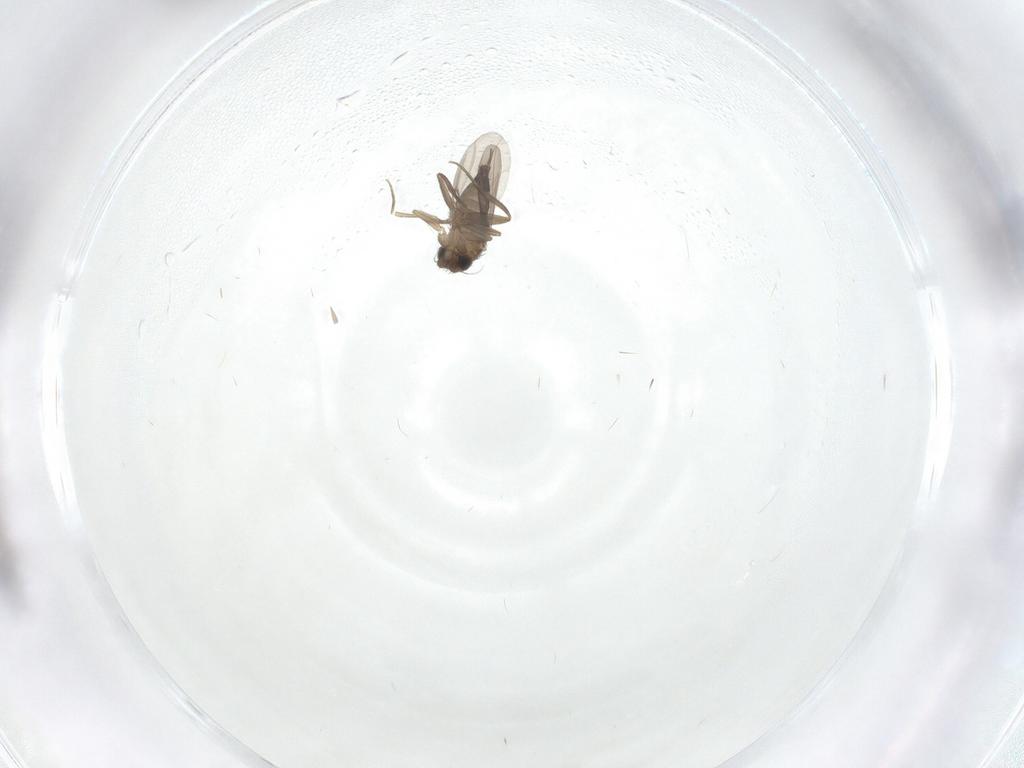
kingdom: Animalia
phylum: Arthropoda
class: Insecta
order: Diptera
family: Phoridae
